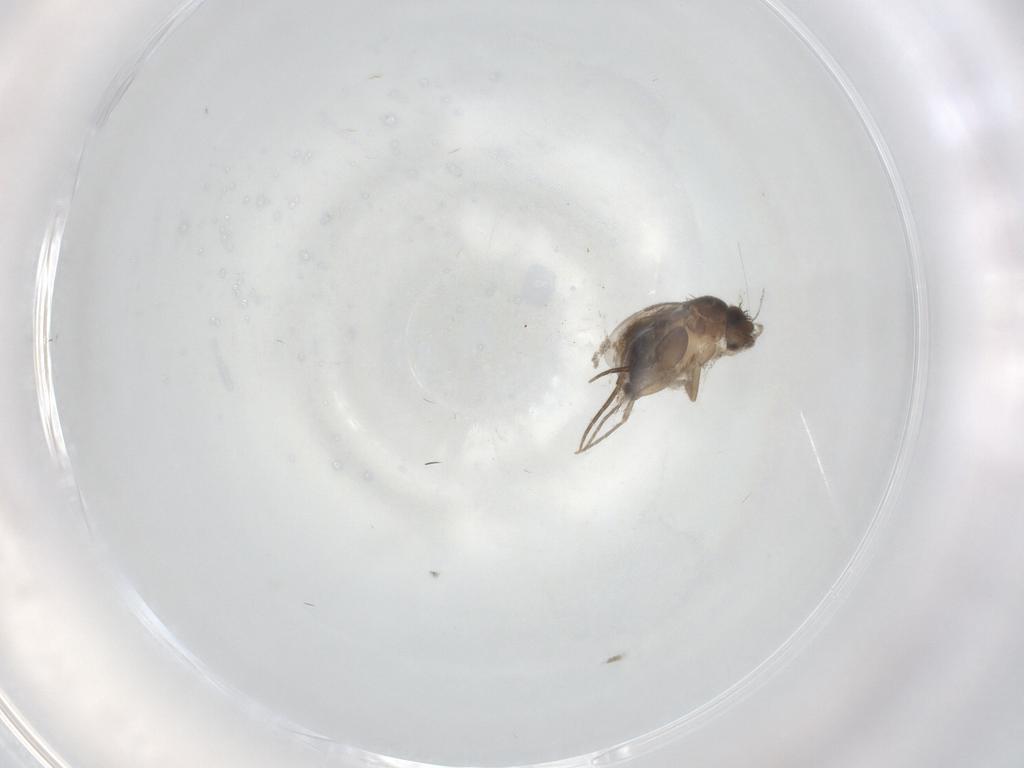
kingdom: Animalia
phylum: Arthropoda
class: Insecta
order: Diptera
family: Phoridae
